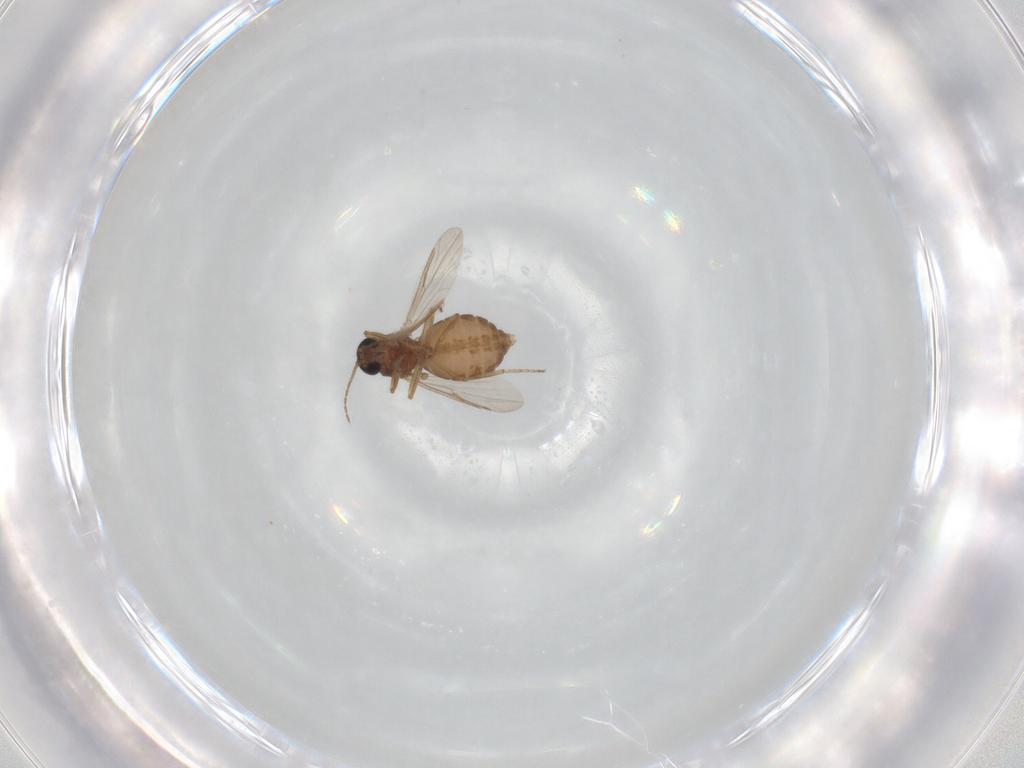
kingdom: Animalia
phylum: Arthropoda
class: Insecta
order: Diptera
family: Ceratopogonidae
